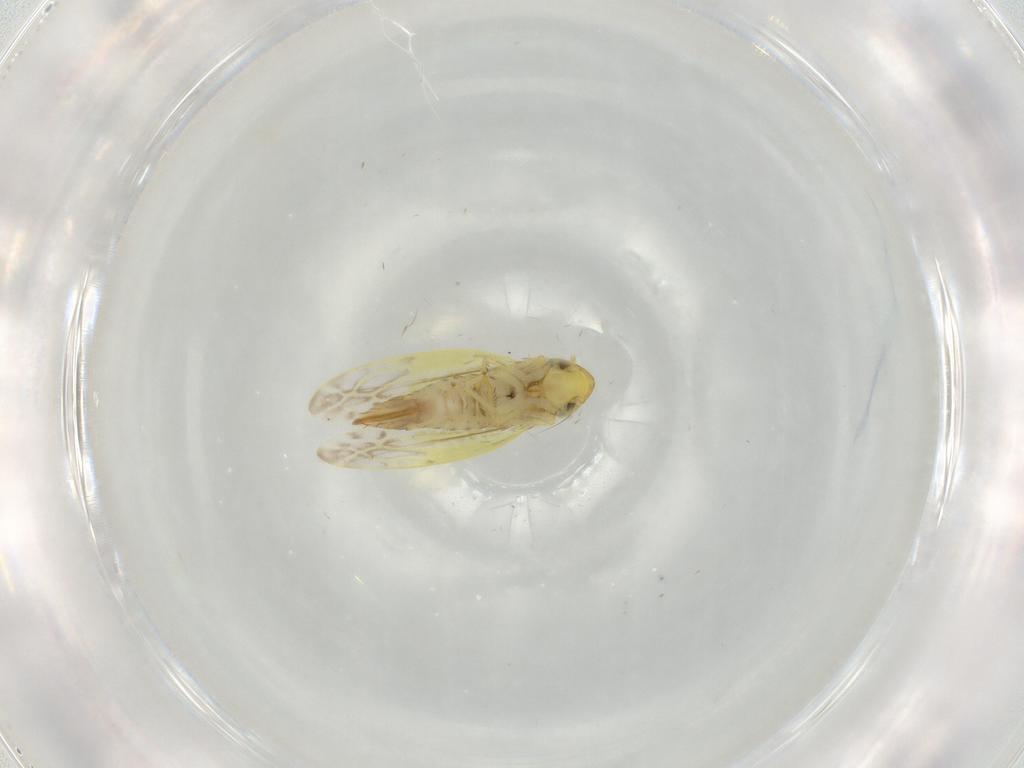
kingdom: Animalia
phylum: Arthropoda
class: Insecta
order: Hemiptera
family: Cicadellidae
